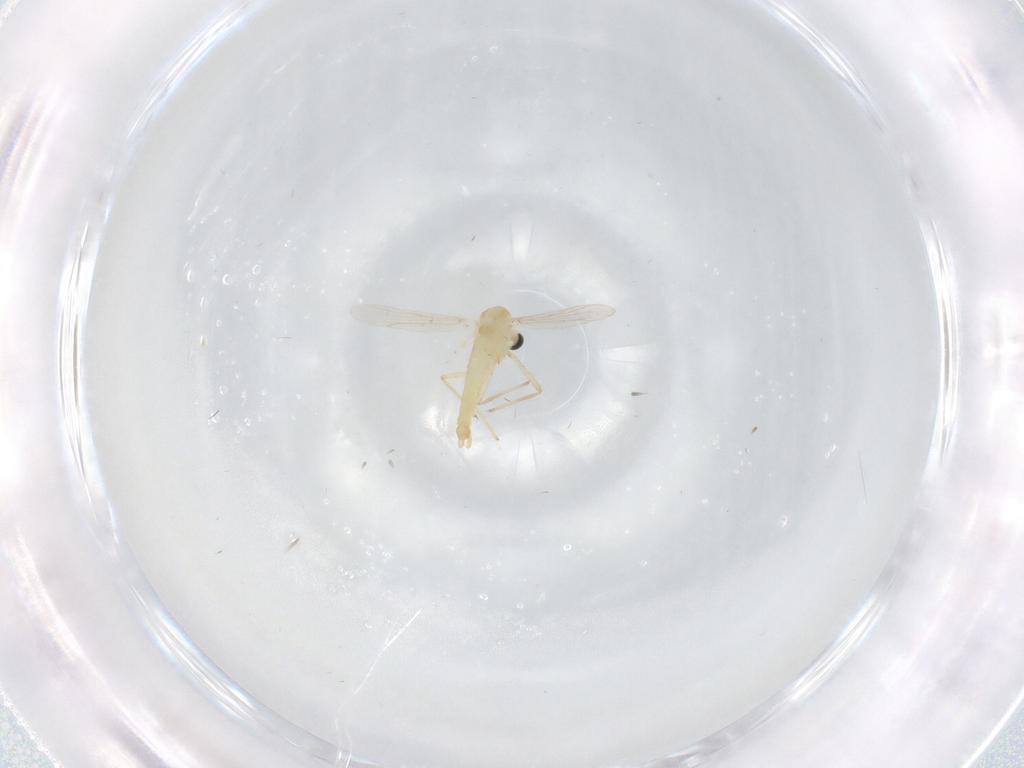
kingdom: Animalia
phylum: Arthropoda
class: Insecta
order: Diptera
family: Chironomidae
